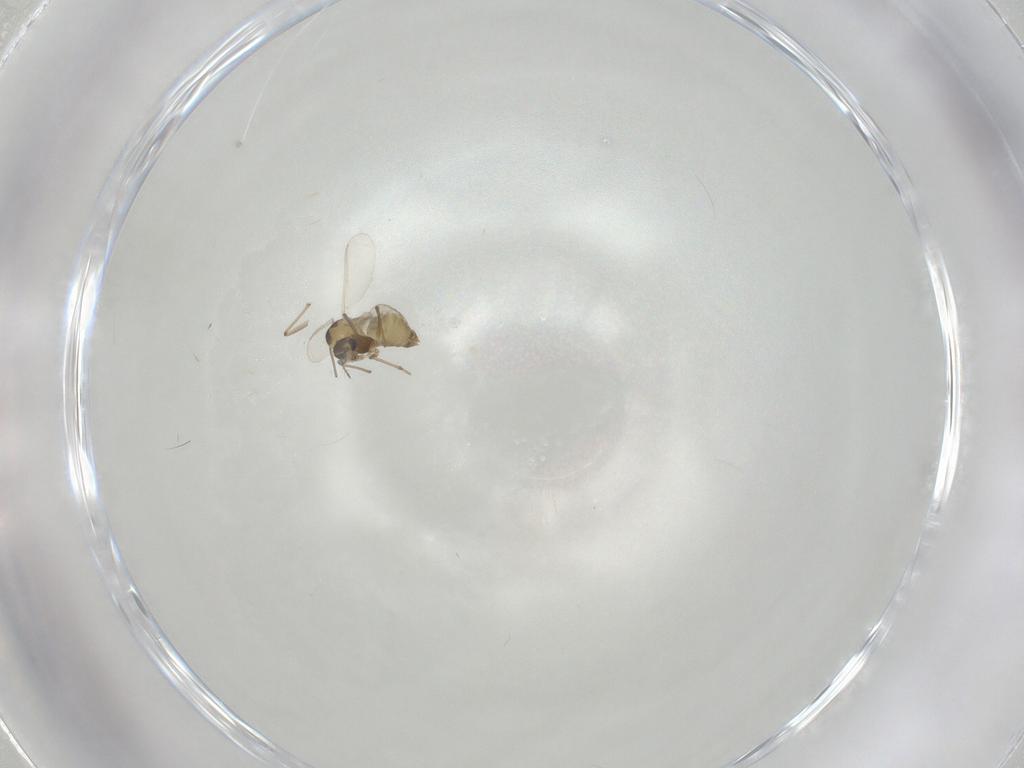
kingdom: Animalia
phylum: Arthropoda
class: Insecta
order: Diptera
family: Chironomidae
